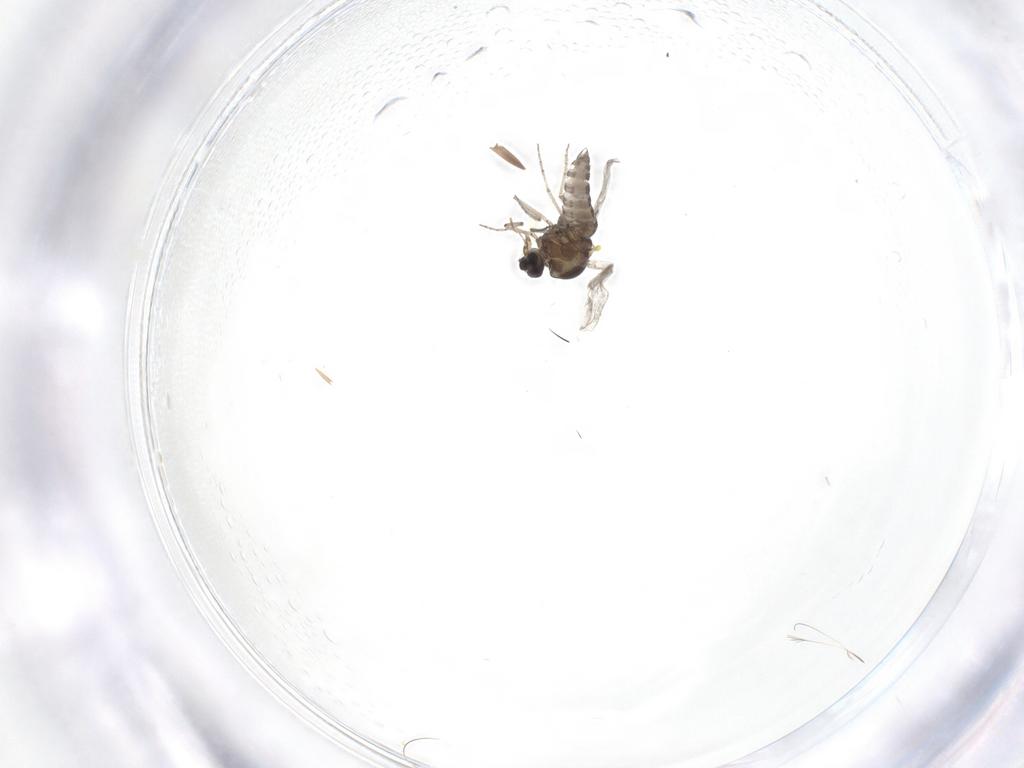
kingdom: Animalia
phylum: Arthropoda
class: Insecta
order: Diptera
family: Ceratopogonidae
